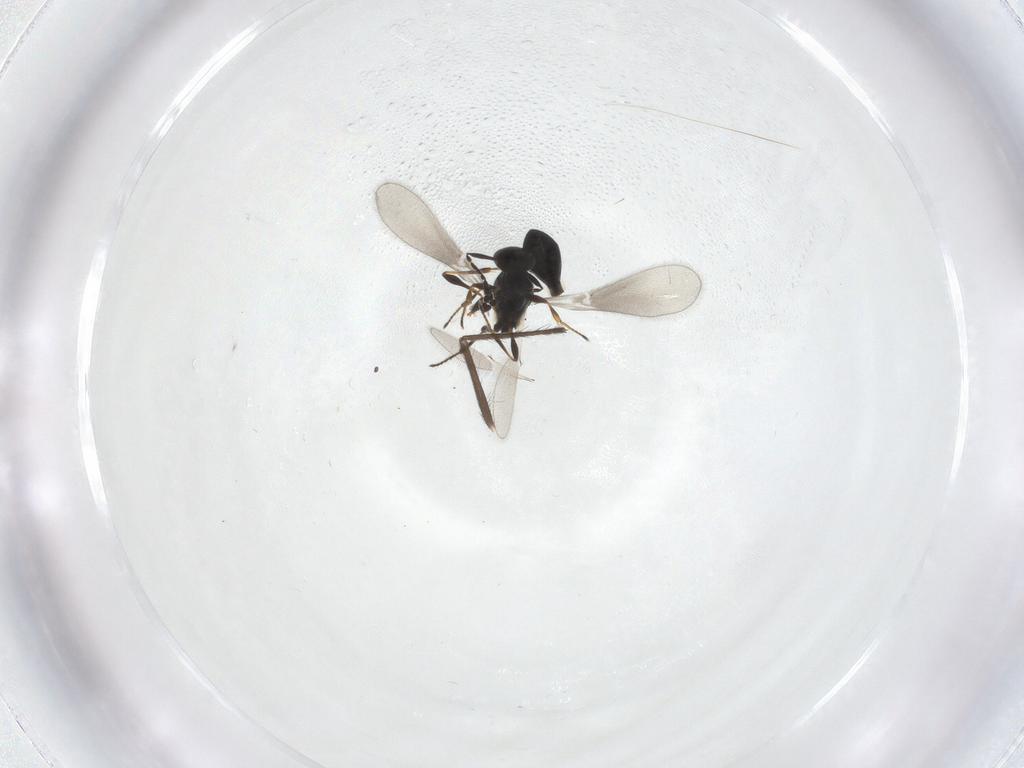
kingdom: Animalia
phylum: Arthropoda
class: Insecta
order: Hymenoptera
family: Platygastridae
